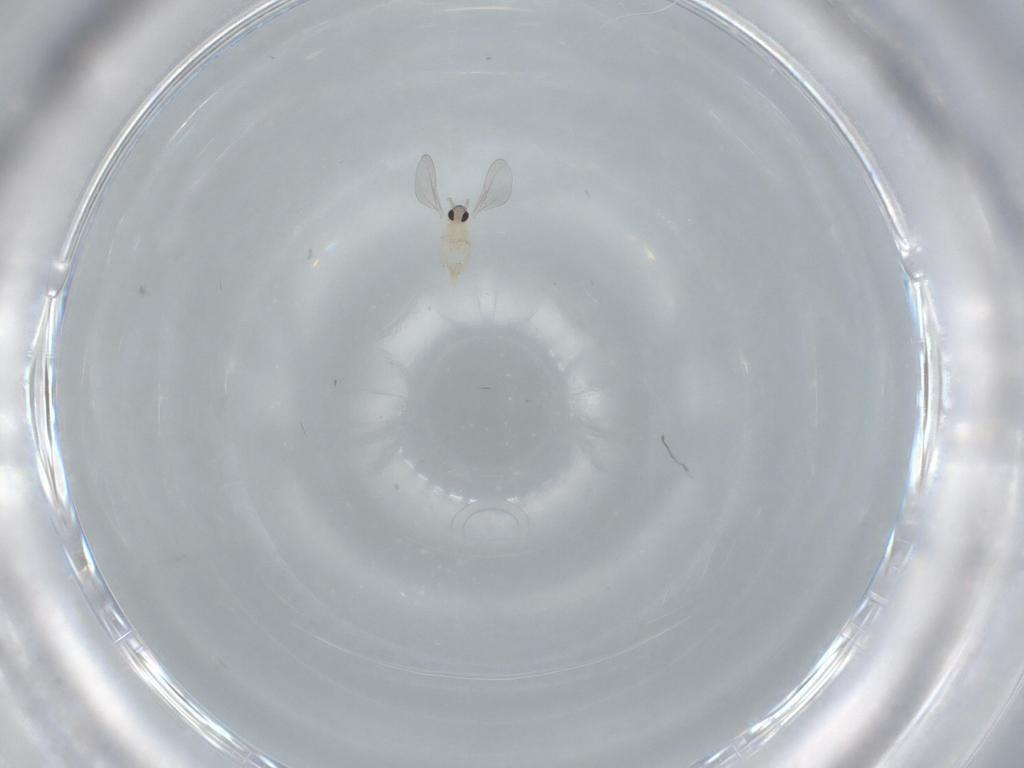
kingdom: Animalia
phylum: Arthropoda
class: Insecta
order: Diptera
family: Cecidomyiidae
